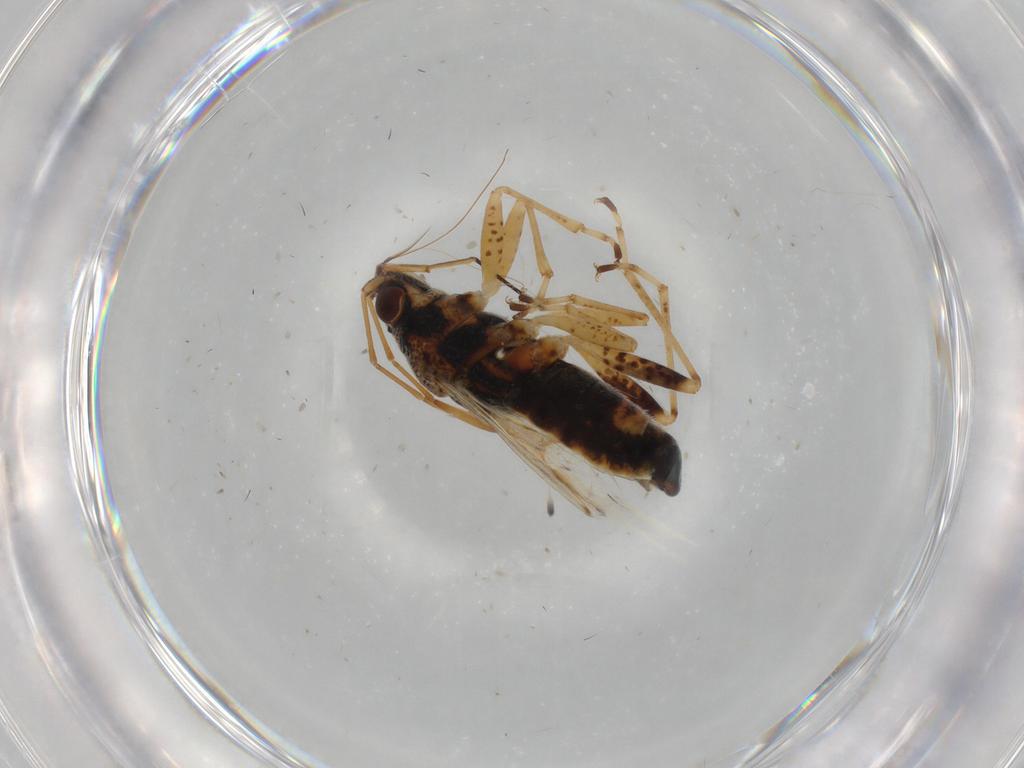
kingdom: Animalia
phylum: Arthropoda
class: Insecta
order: Hemiptera
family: Lygaeidae
